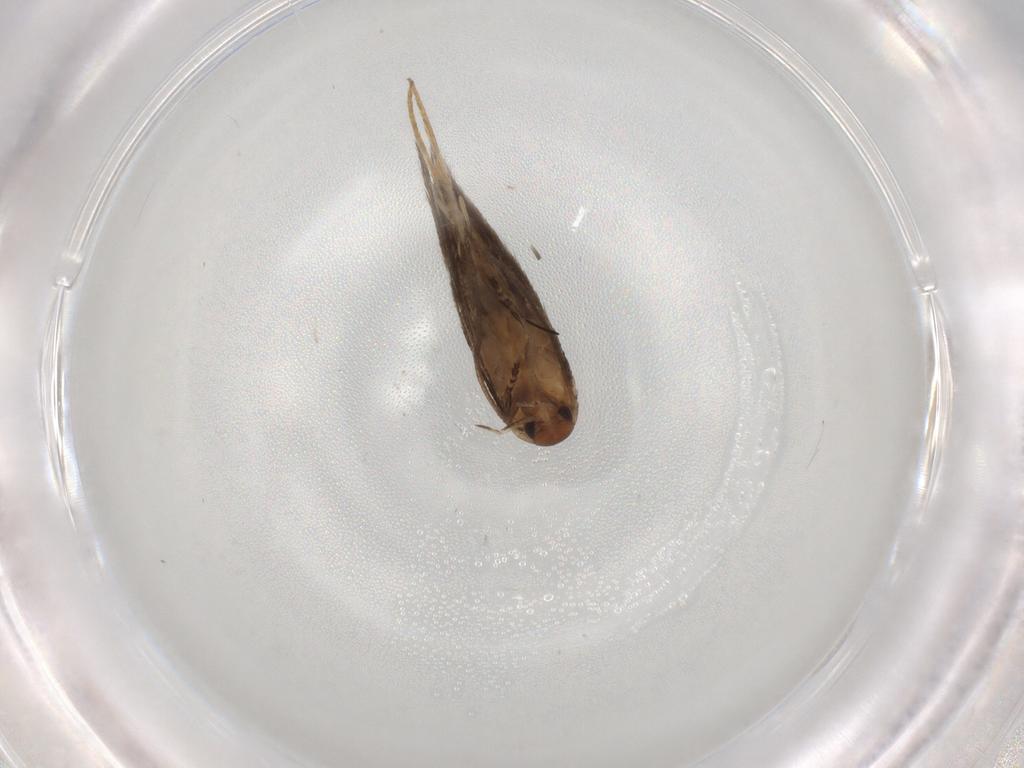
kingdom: Animalia
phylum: Arthropoda
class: Insecta
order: Lepidoptera
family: Elachistidae
